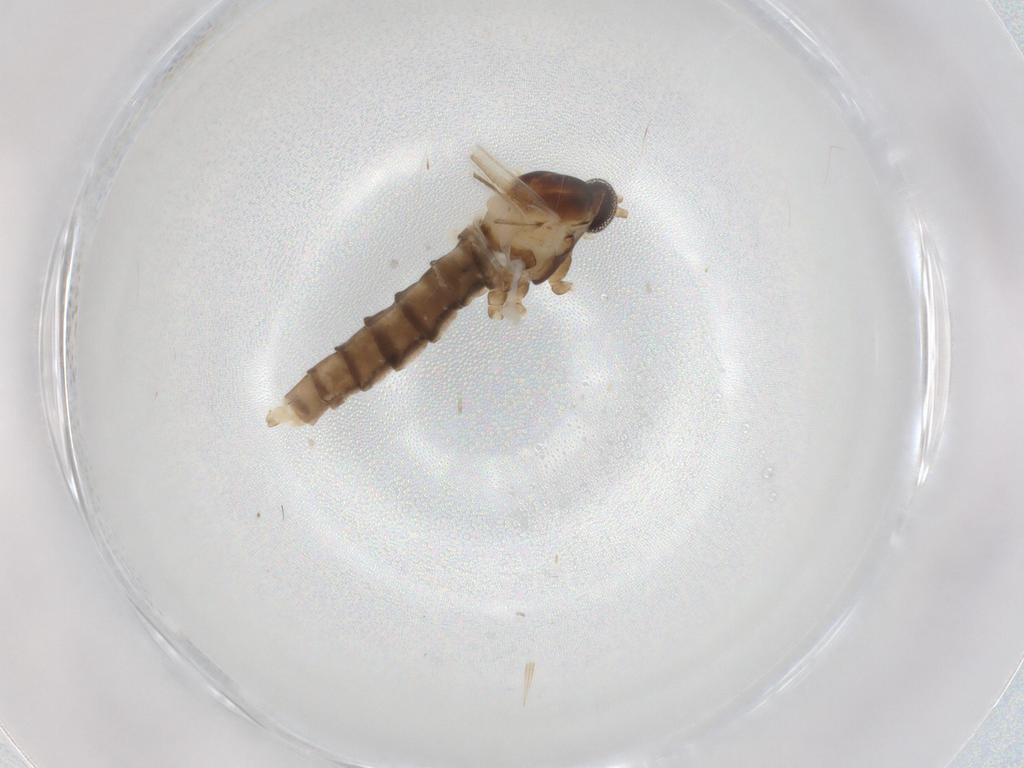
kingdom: Animalia
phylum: Arthropoda
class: Insecta
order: Diptera
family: Cecidomyiidae
